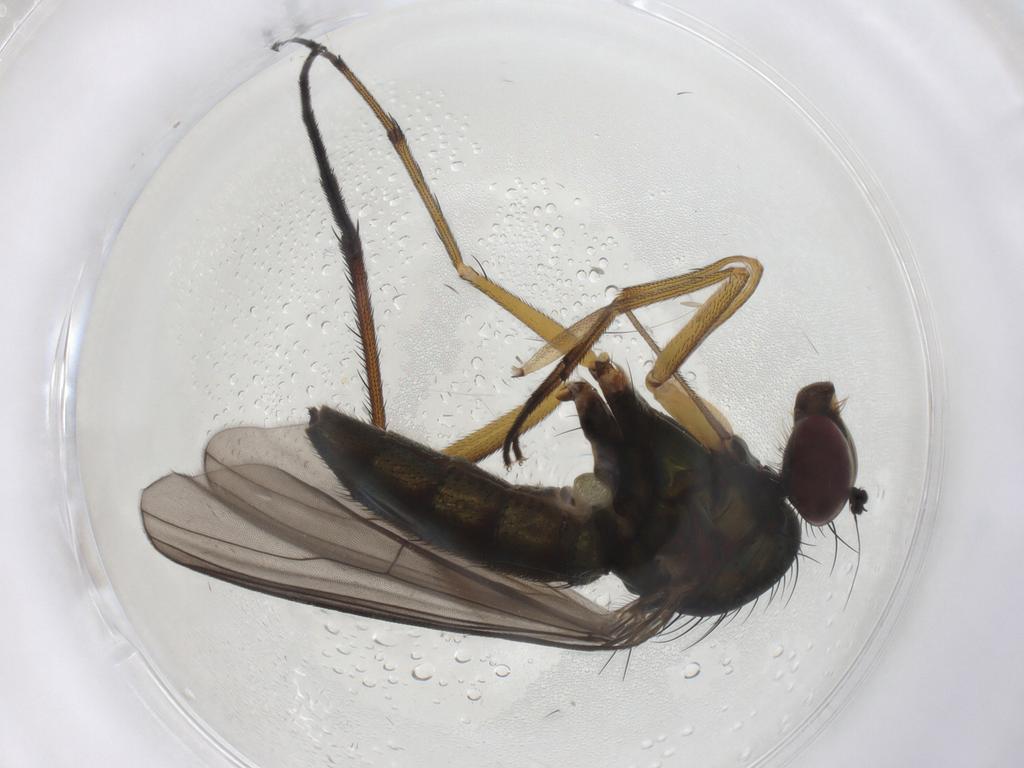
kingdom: Animalia
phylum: Arthropoda
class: Insecta
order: Diptera
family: Dolichopodidae
